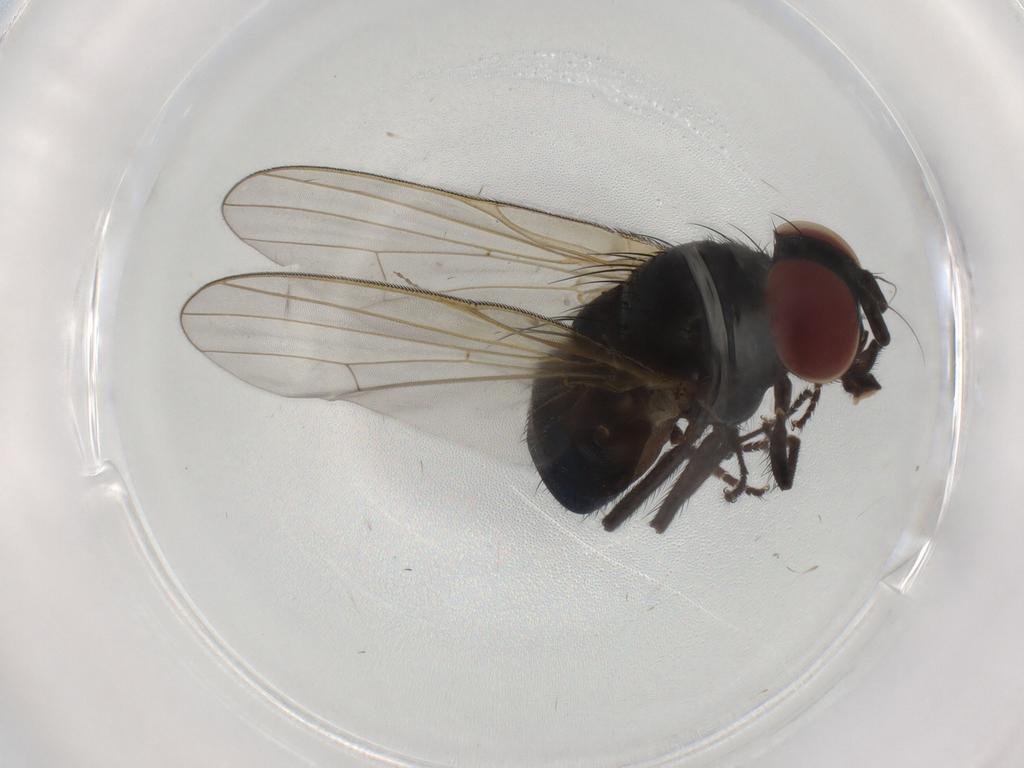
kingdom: Animalia
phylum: Arthropoda
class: Insecta
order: Diptera
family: Lonchaeidae
